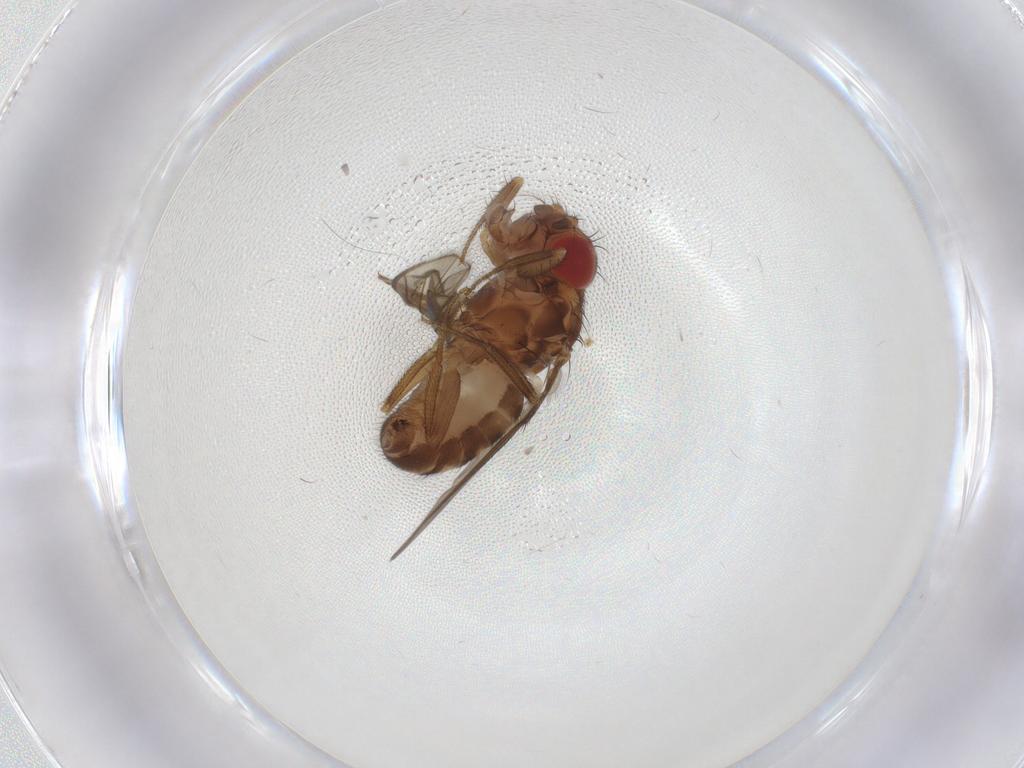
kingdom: Animalia
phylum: Arthropoda
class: Insecta
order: Diptera
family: Drosophilidae
